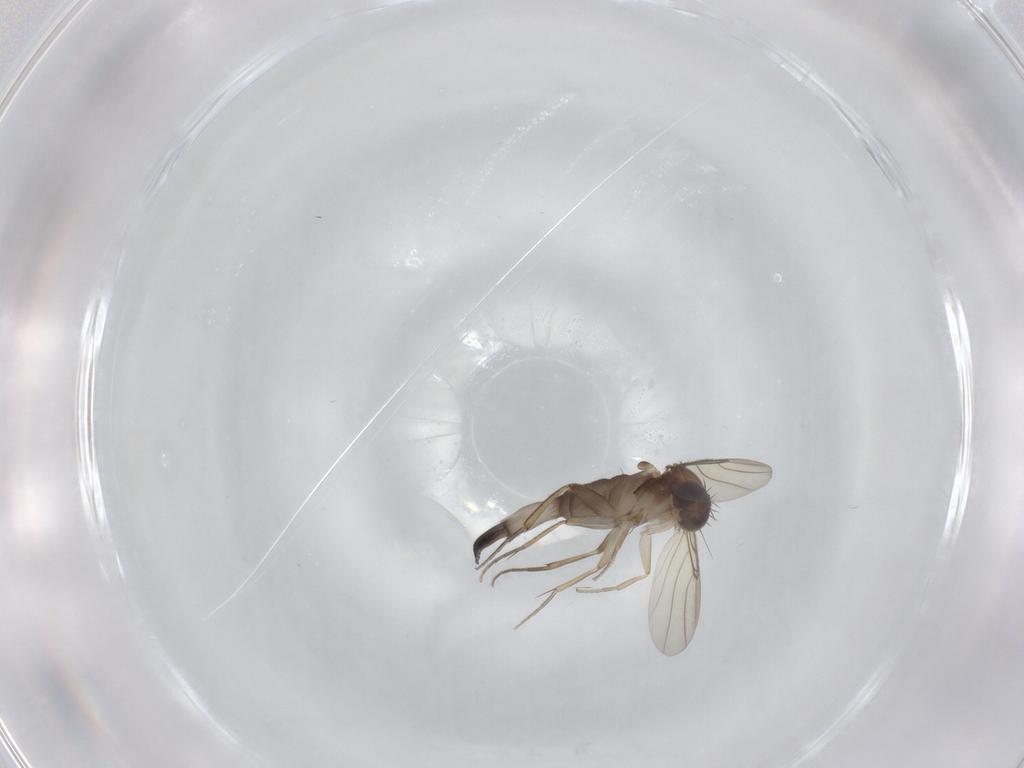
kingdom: Animalia
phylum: Arthropoda
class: Insecta
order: Diptera
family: Phoridae
